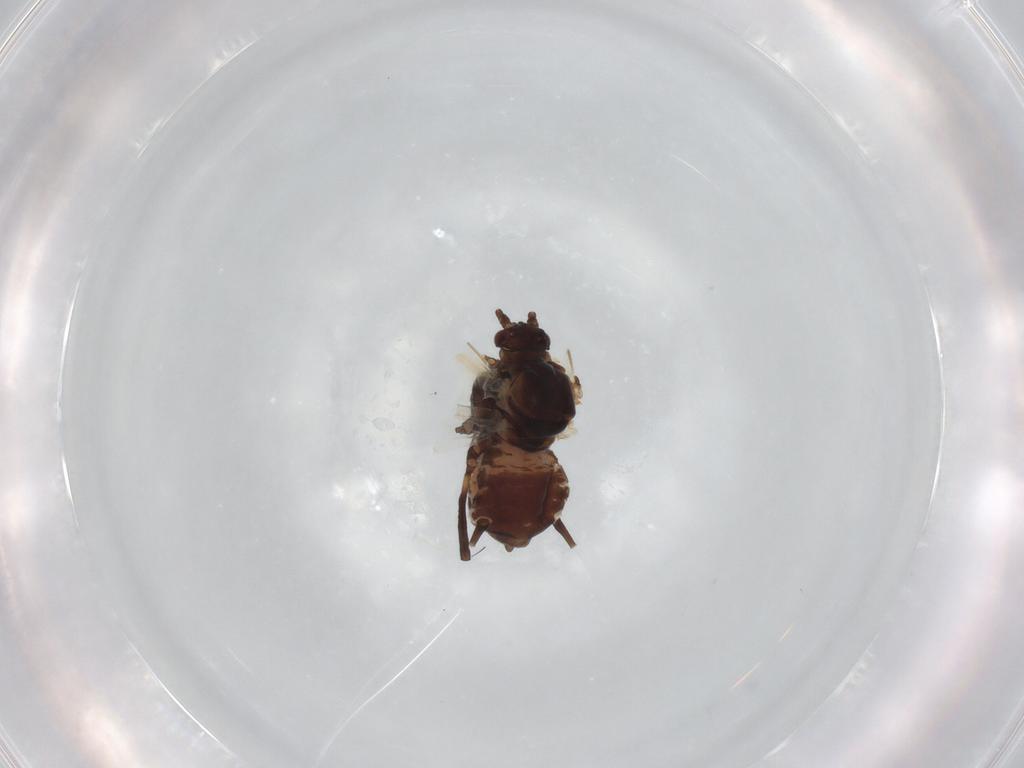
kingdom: Animalia
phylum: Arthropoda
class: Insecta
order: Hemiptera
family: Aphididae
